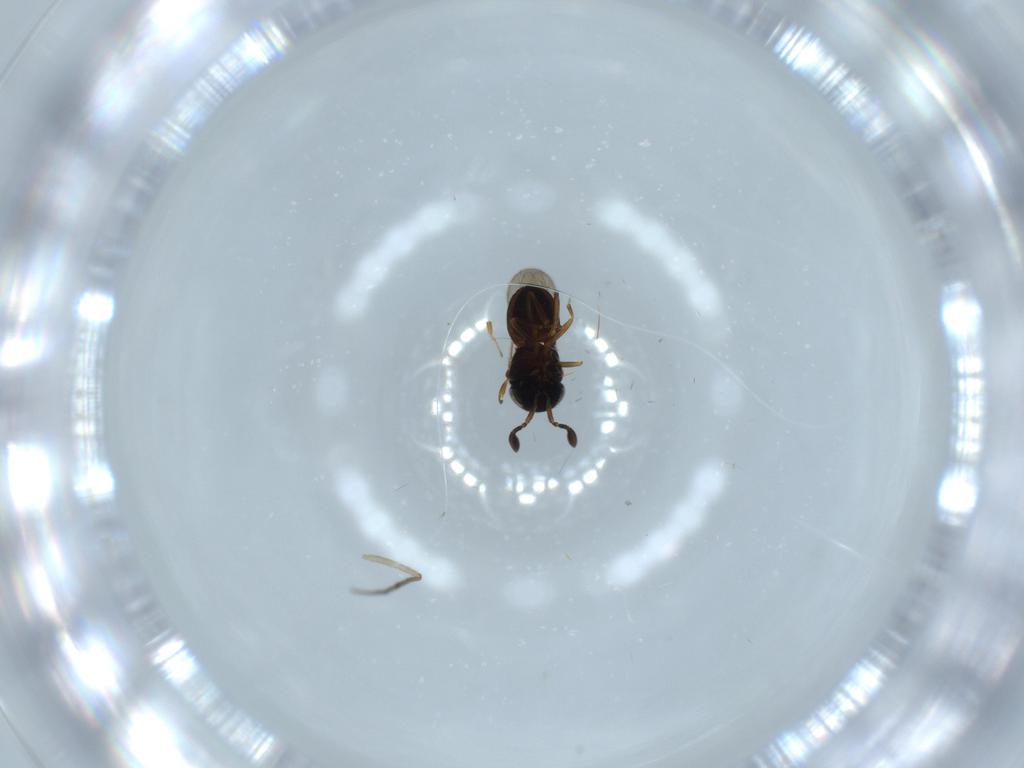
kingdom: Animalia
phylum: Arthropoda
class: Insecta
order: Hymenoptera
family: Scelionidae
